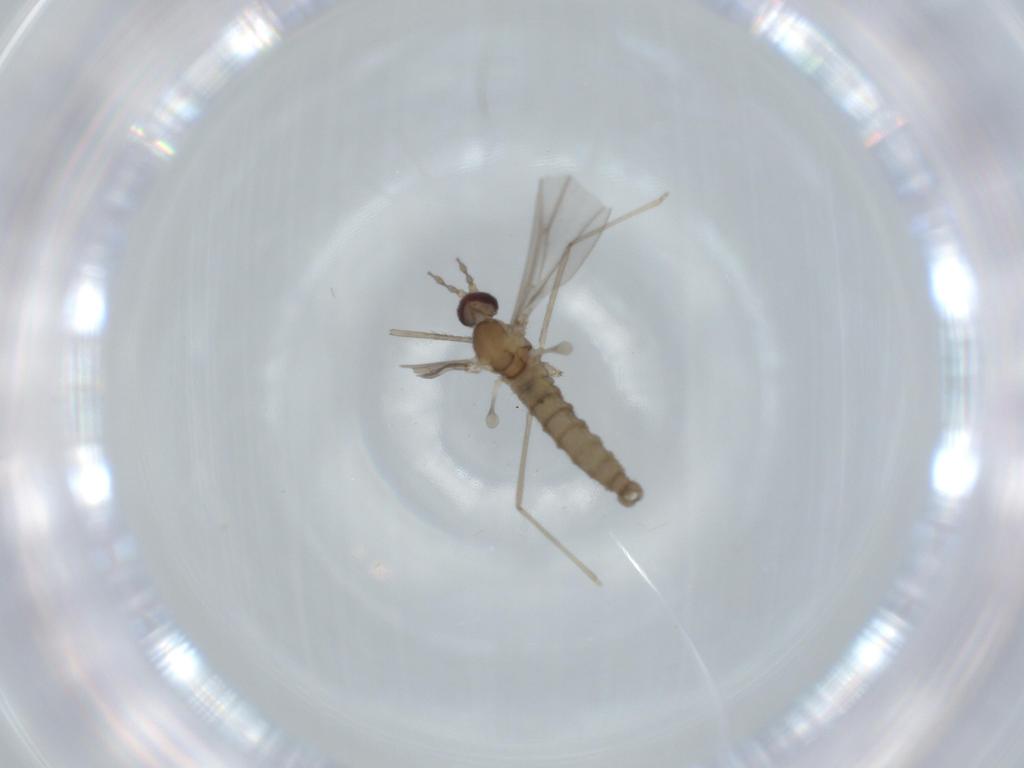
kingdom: Animalia
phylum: Arthropoda
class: Insecta
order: Diptera
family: Cecidomyiidae
